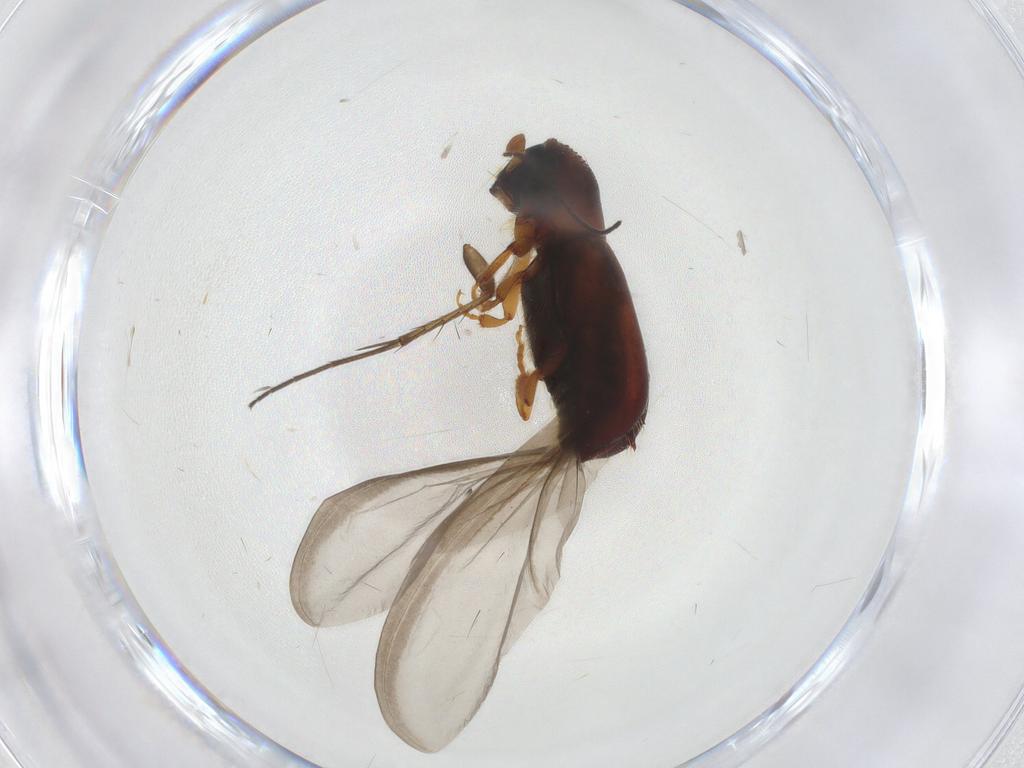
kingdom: Animalia
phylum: Arthropoda
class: Insecta
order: Coleoptera
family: Curculionidae
